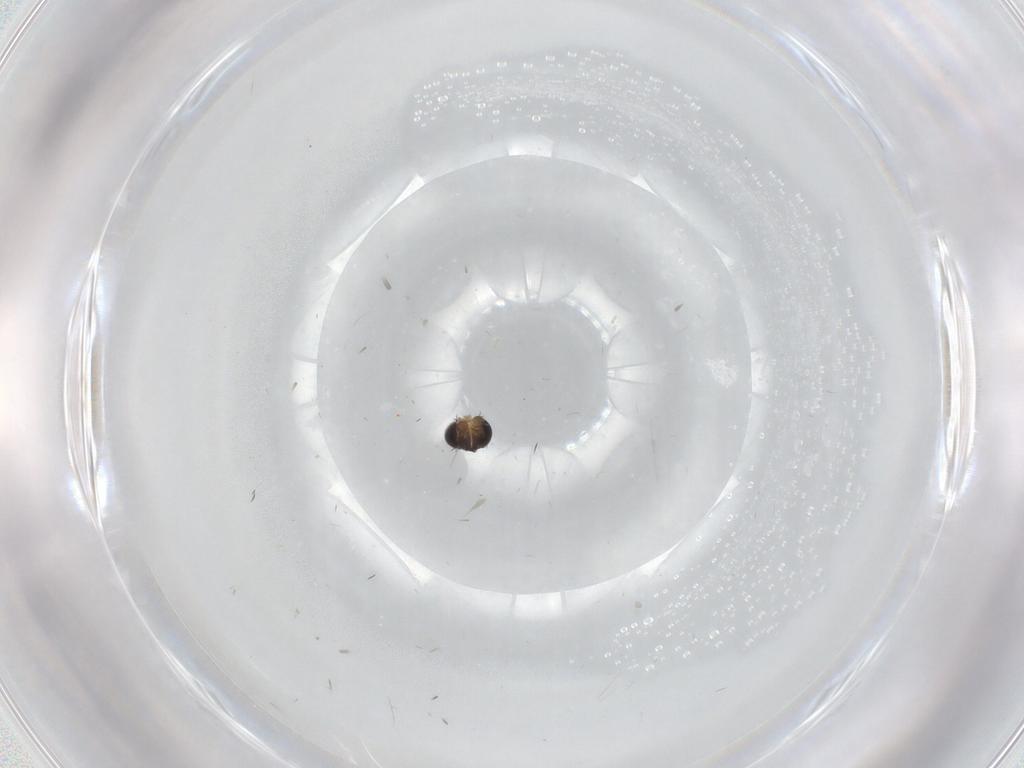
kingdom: Animalia
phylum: Arthropoda
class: Insecta
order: Diptera
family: Phoridae
